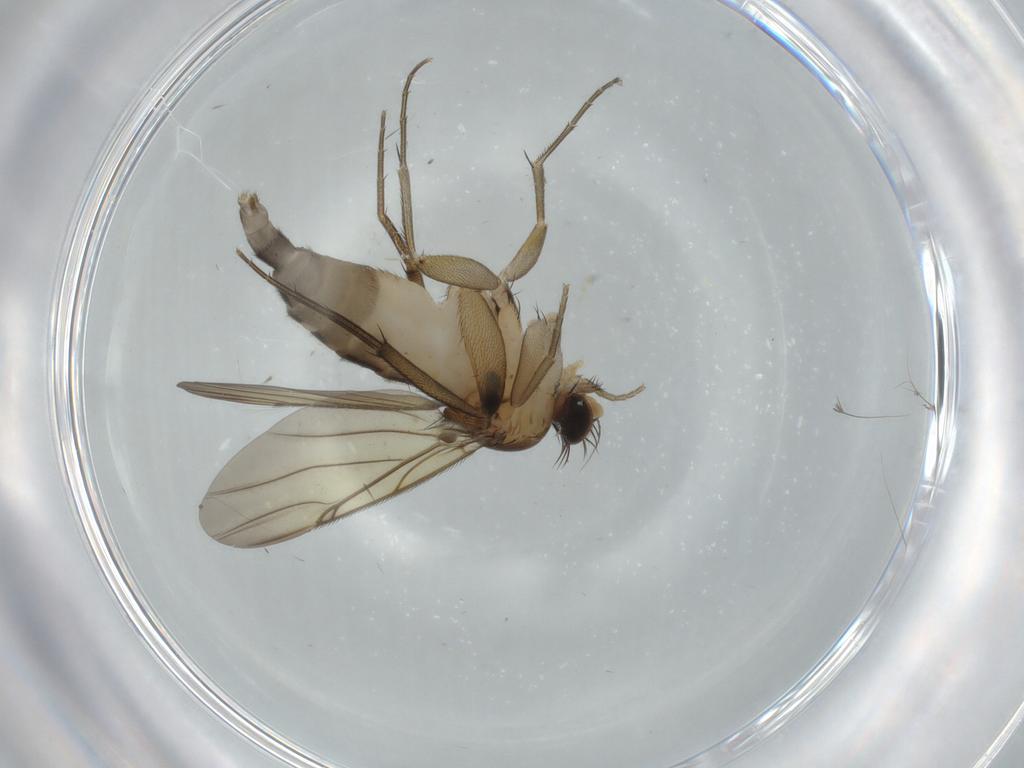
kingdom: Animalia
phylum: Arthropoda
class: Insecta
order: Diptera
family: Phoridae
